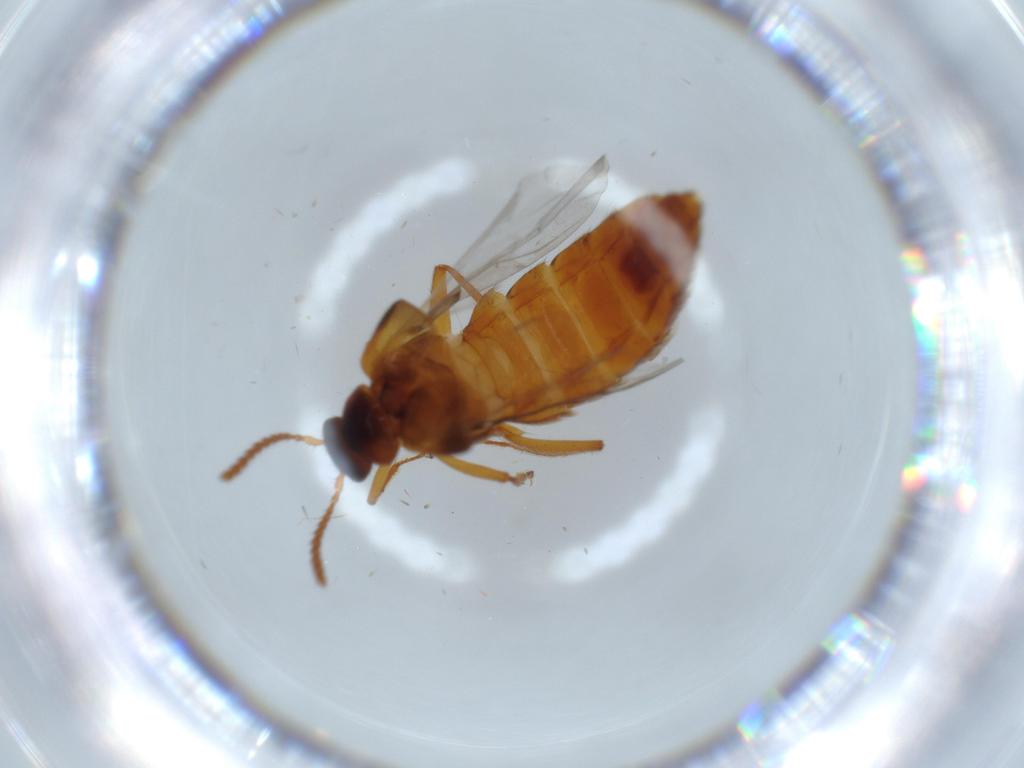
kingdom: Animalia
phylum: Arthropoda
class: Insecta
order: Coleoptera
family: Staphylinidae
